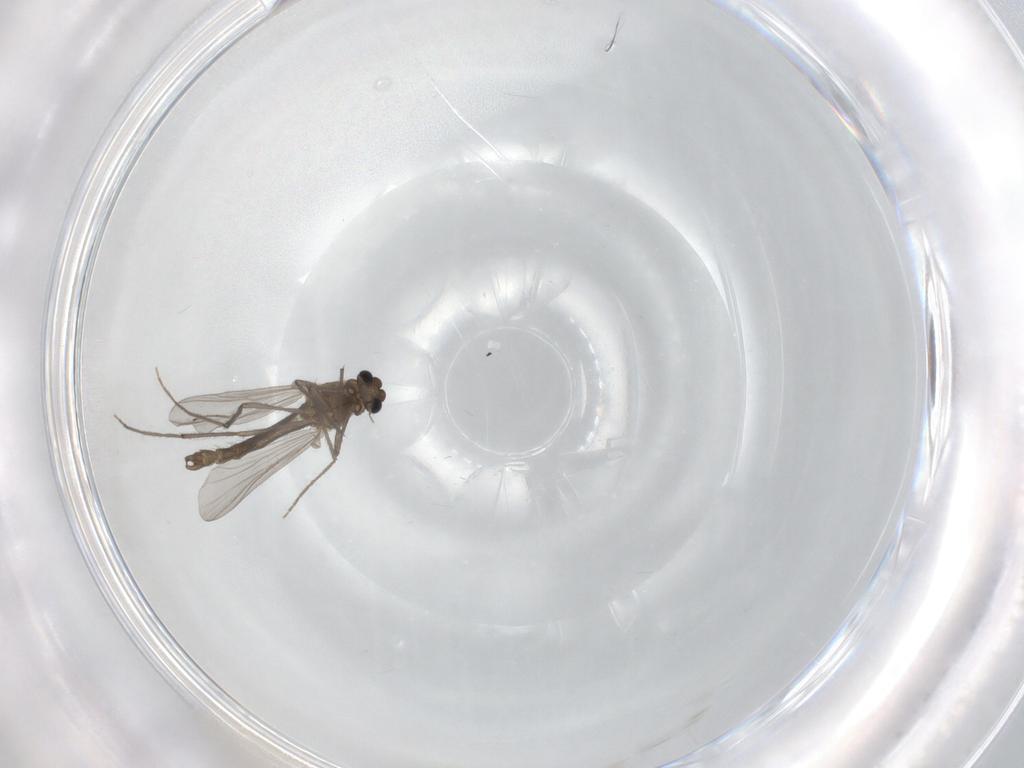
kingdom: Animalia
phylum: Arthropoda
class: Insecta
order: Diptera
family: Chironomidae
